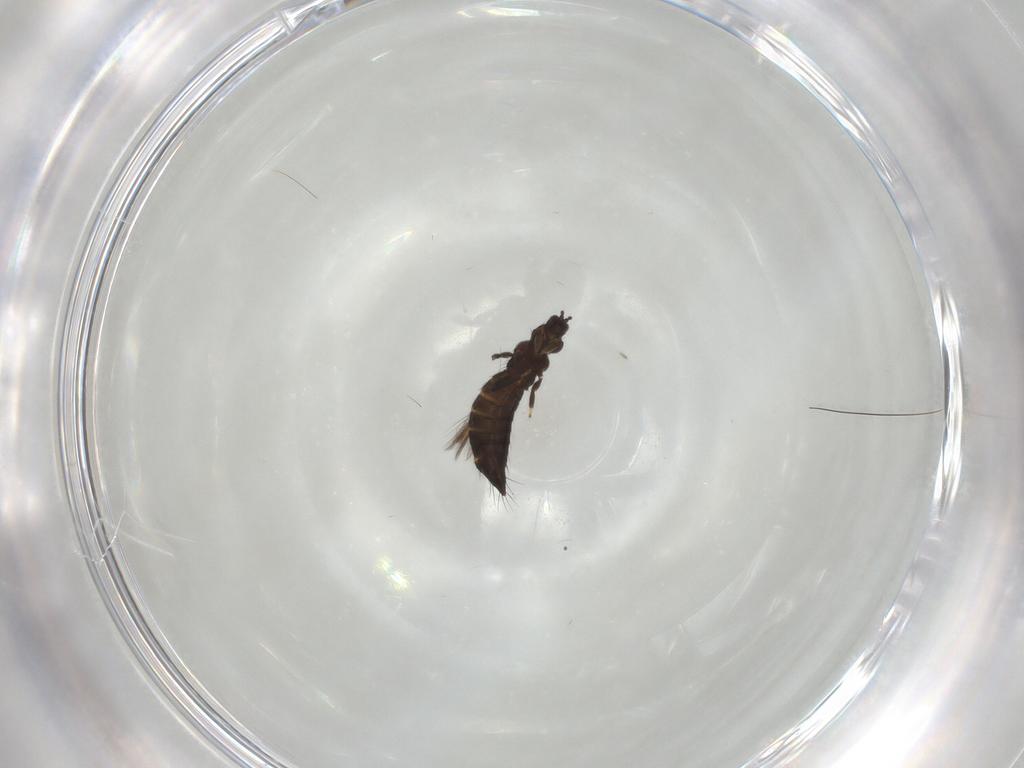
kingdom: Animalia
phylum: Arthropoda
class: Insecta
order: Thysanoptera
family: Thripidae
